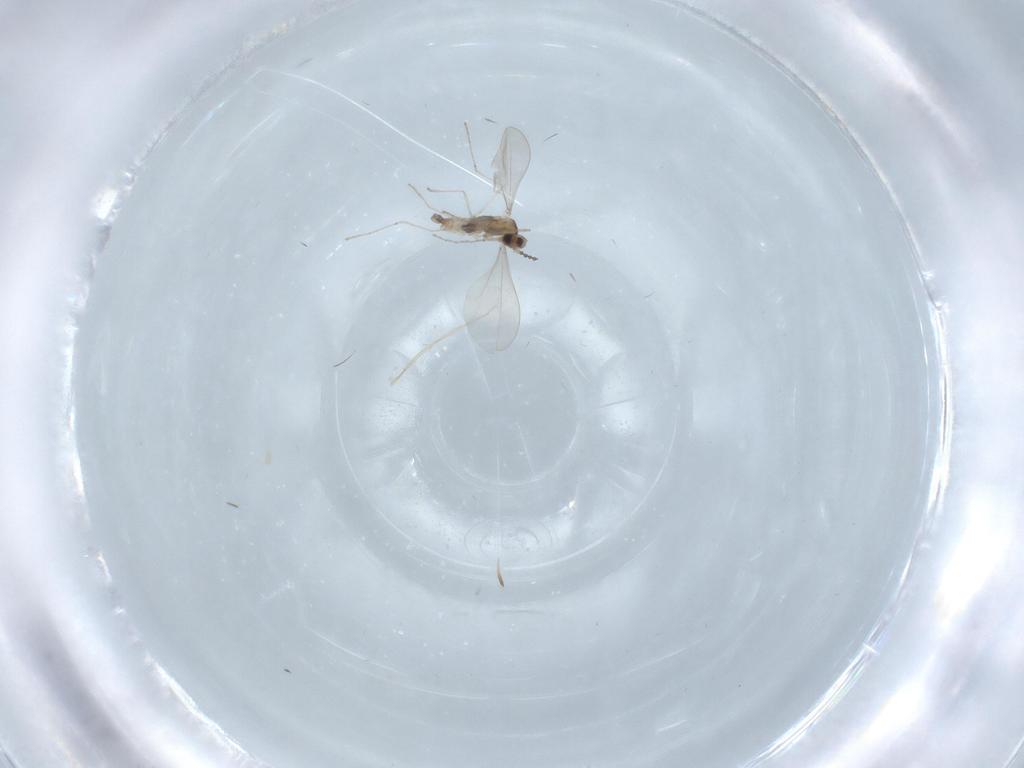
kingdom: Animalia
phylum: Arthropoda
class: Insecta
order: Diptera
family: Cecidomyiidae
